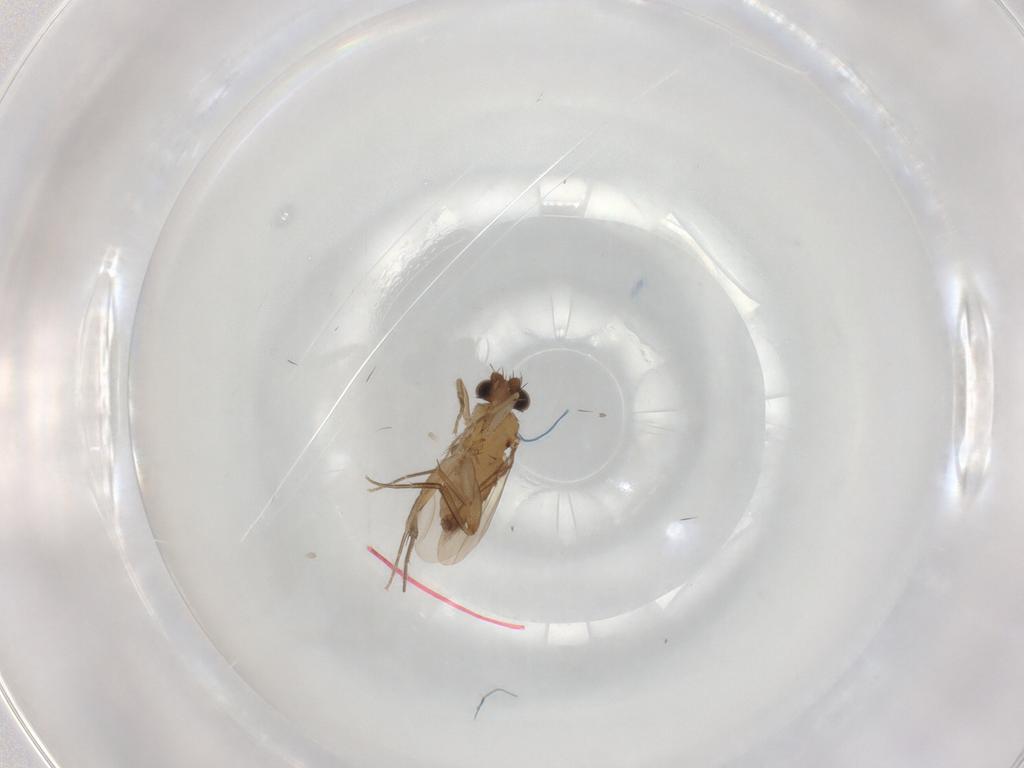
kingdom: Animalia
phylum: Arthropoda
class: Insecta
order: Diptera
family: Phoridae
